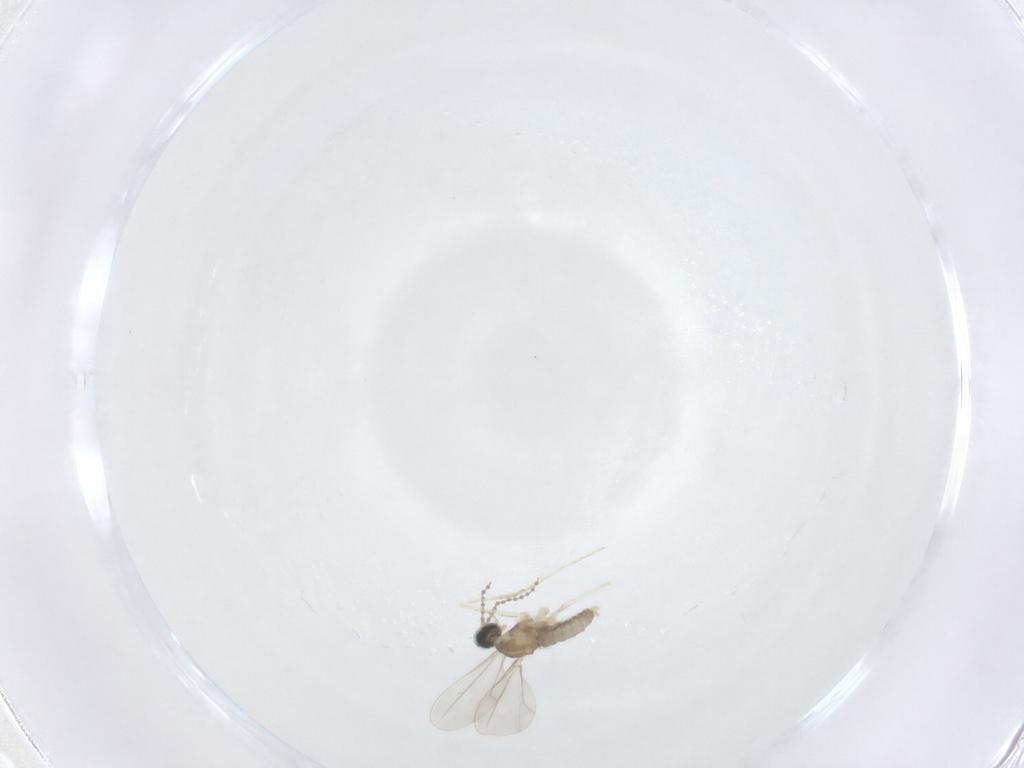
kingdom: Animalia
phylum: Arthropoda
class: Insecta
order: Diptera
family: Cecidomyiidae
